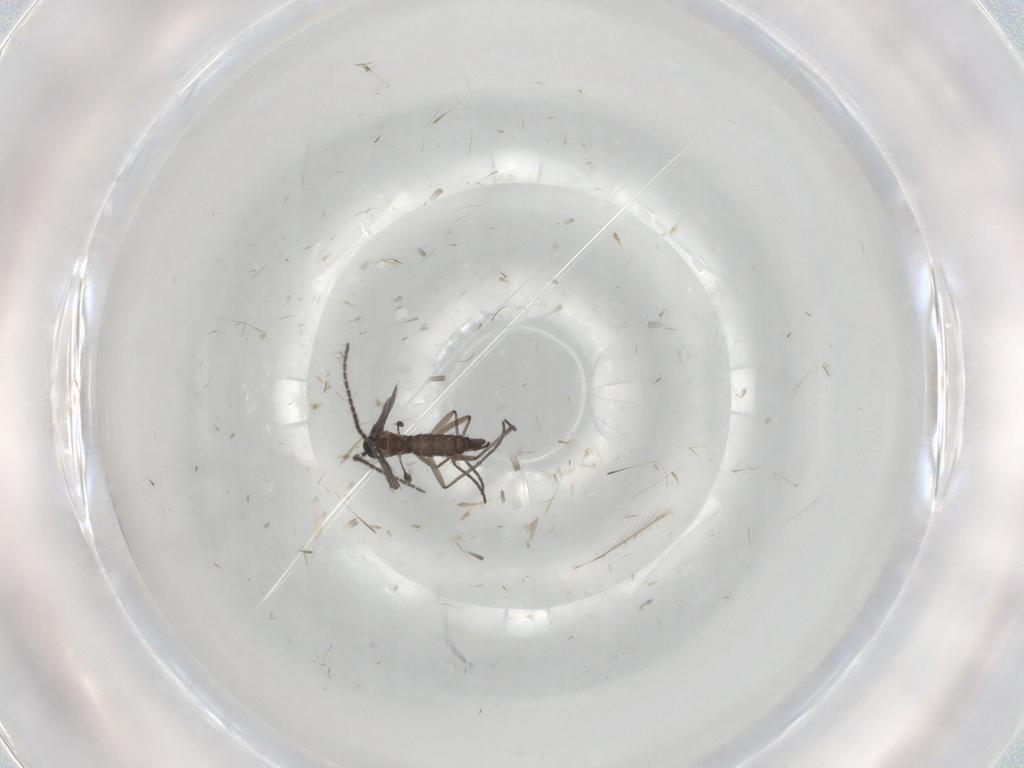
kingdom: Animalia
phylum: Arthropoda
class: Insecta
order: Diptera
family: Sciaridae
